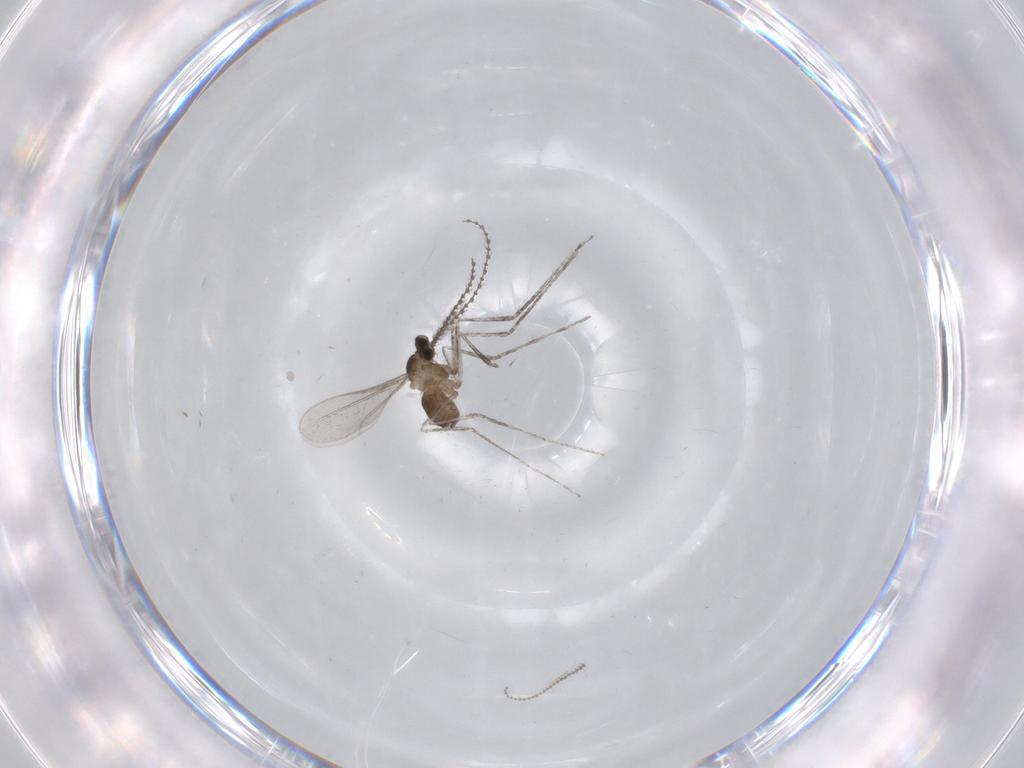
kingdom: Animalia
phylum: Arthropoda
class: Insecta
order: Diptera
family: Cecidomyiidae
